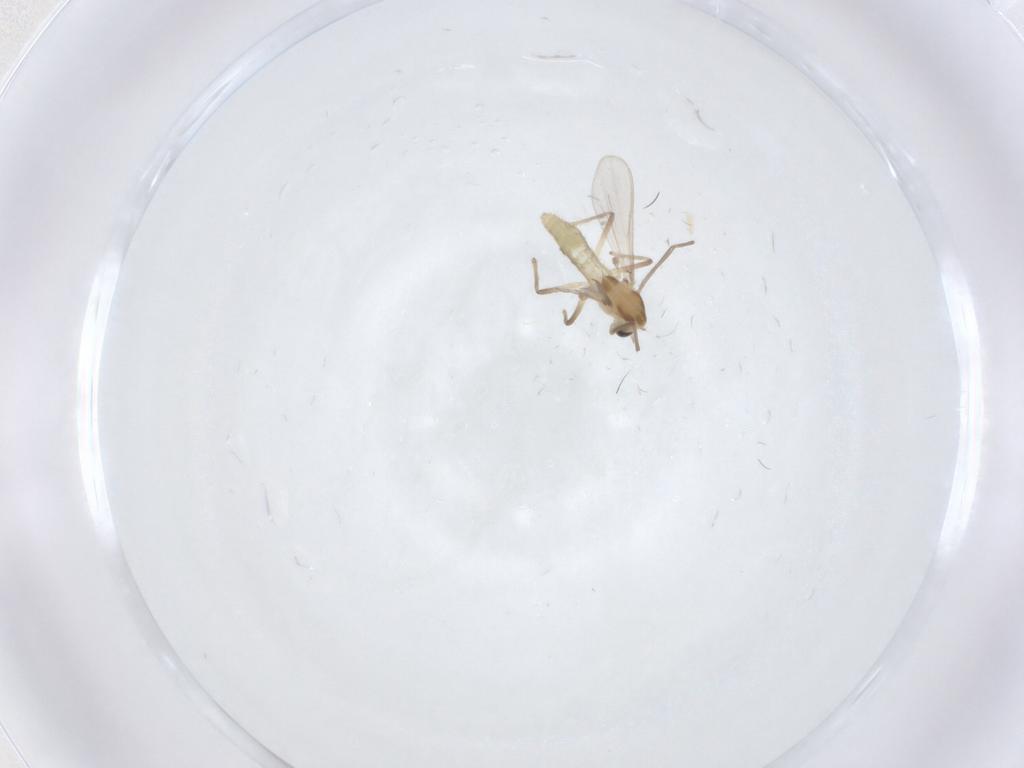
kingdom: Animalia
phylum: Arthropoda
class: Insecta
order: Diptera
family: Chironomidae
